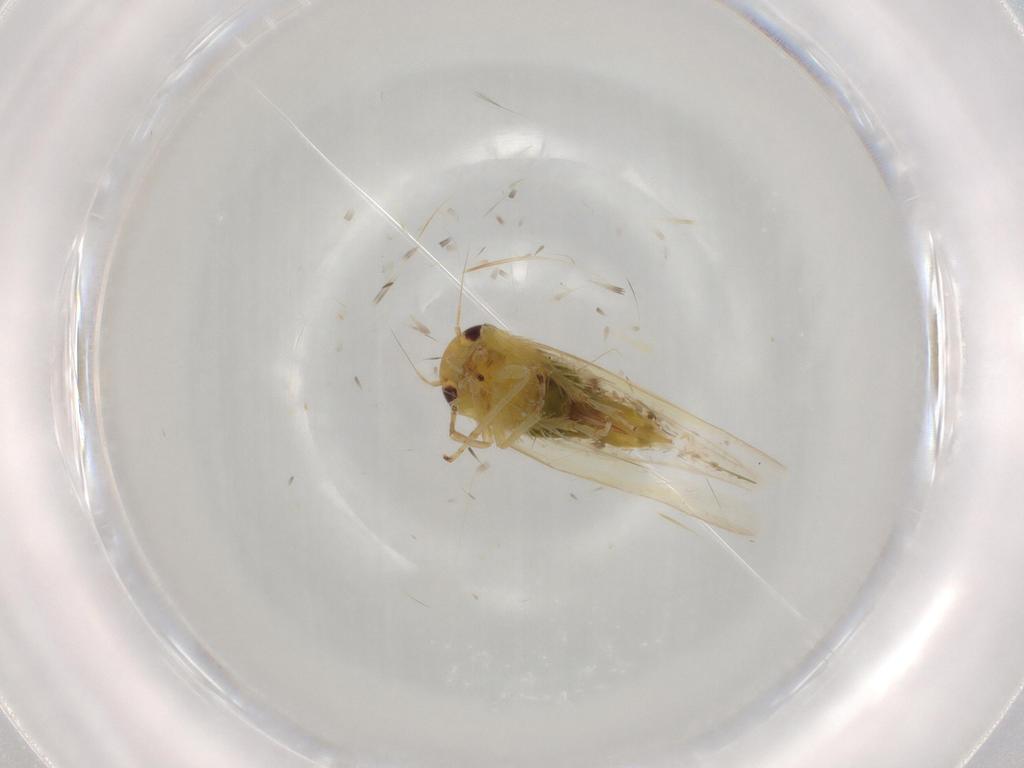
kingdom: Animalia
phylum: Arthropoda
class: Insecta
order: Hemiptera
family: Cicadellidae
